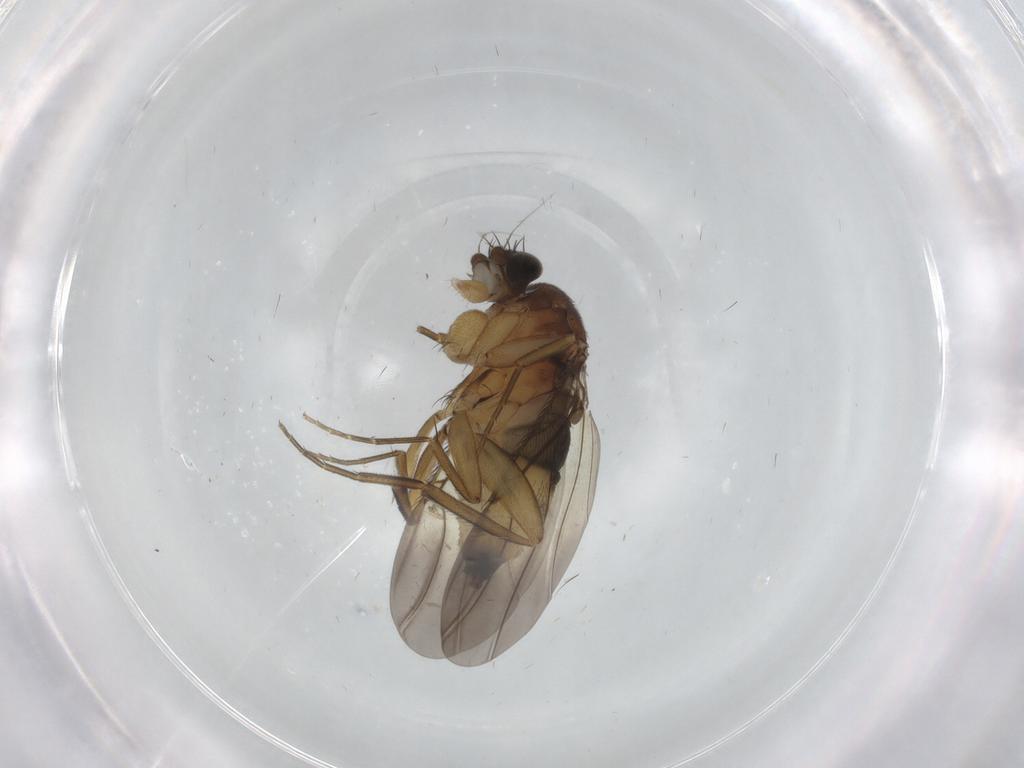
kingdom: Animalia
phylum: Arthropoda
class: Insecta
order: Diptera
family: Phoridae
